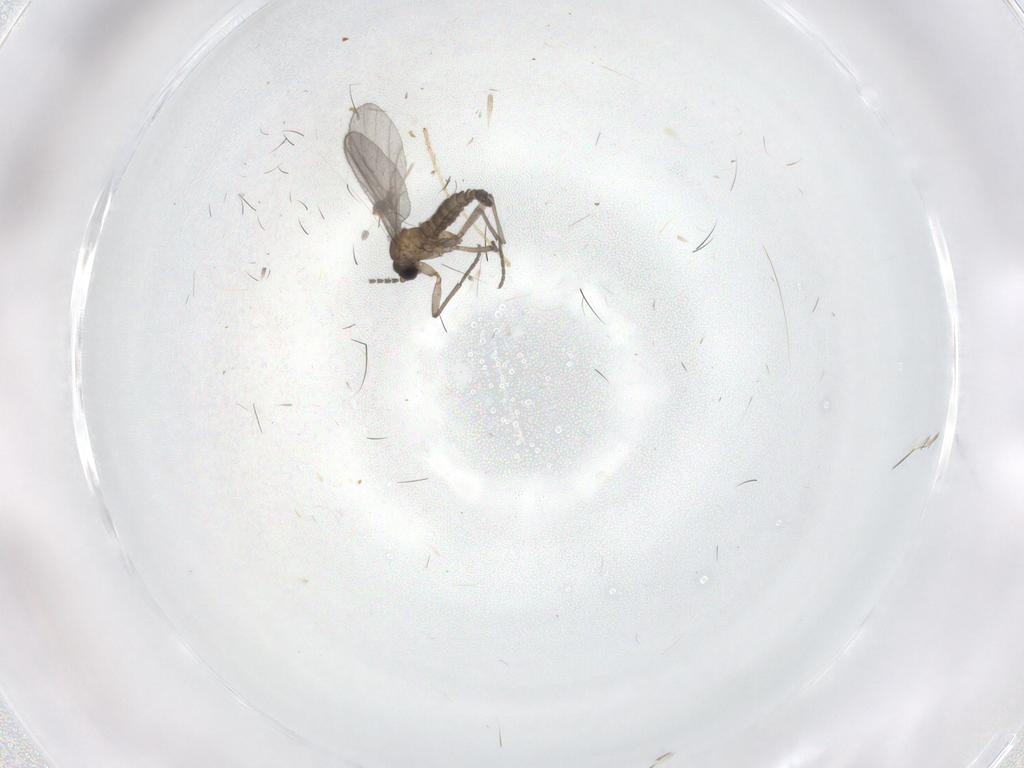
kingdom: Animalia
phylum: Arthropoda
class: Insecta
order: Diptera
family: Sciaridae
